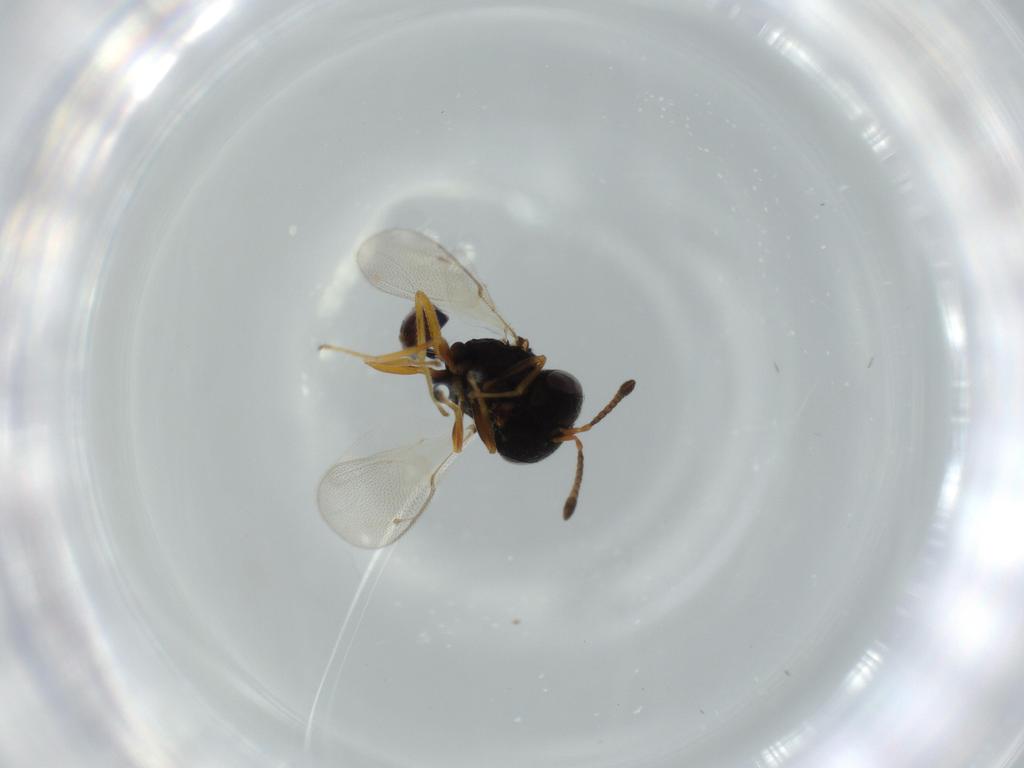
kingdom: Animalia
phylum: Arthropoda
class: Insecta
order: Hymenoptera
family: Pteromalidae
